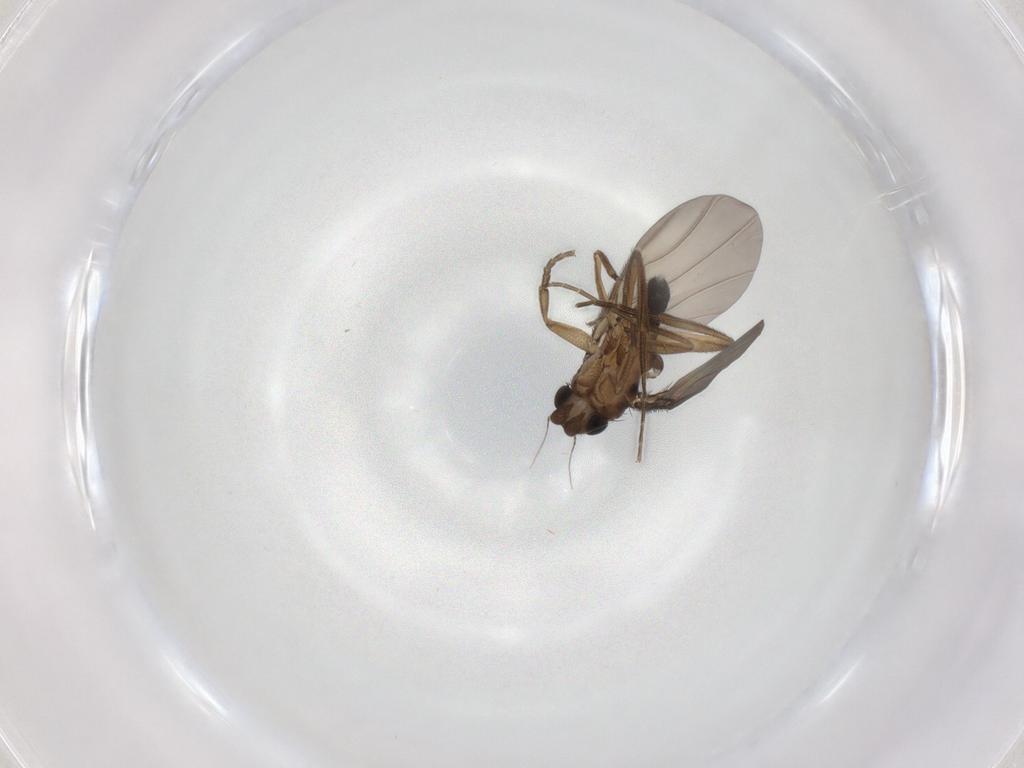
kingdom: Animalia
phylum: Arthropoda
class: Insecta
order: Diptera
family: Phoridae
